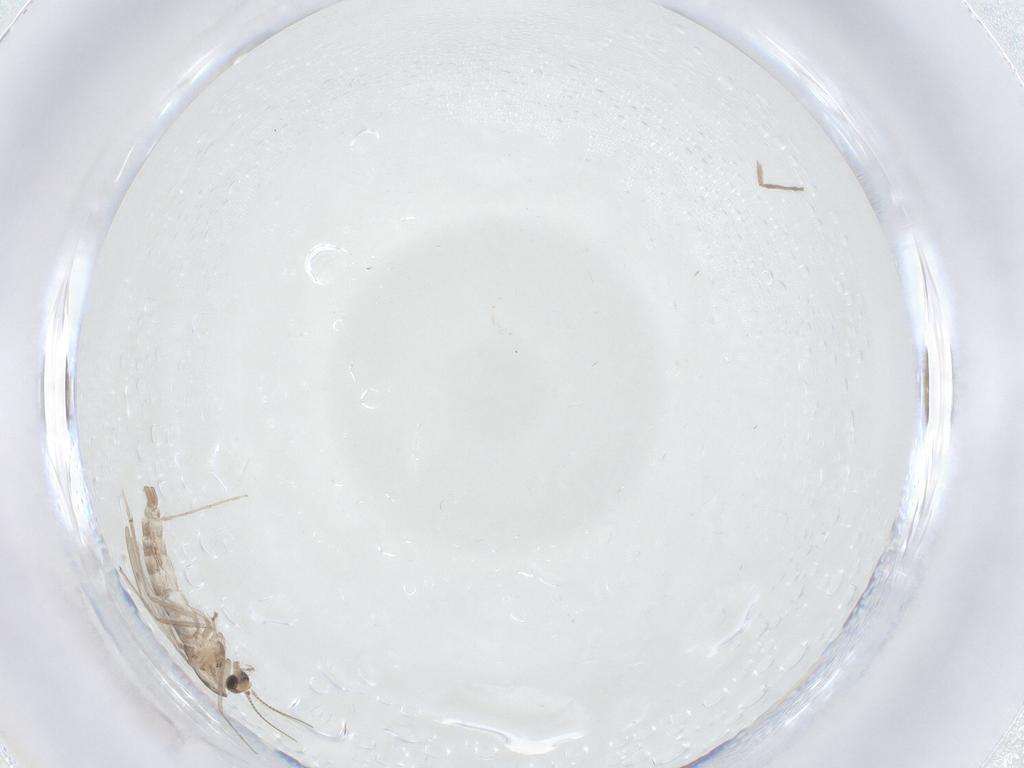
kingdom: Animalia
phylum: Arthropoda
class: Insecta
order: Diptera
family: Chironomidae
